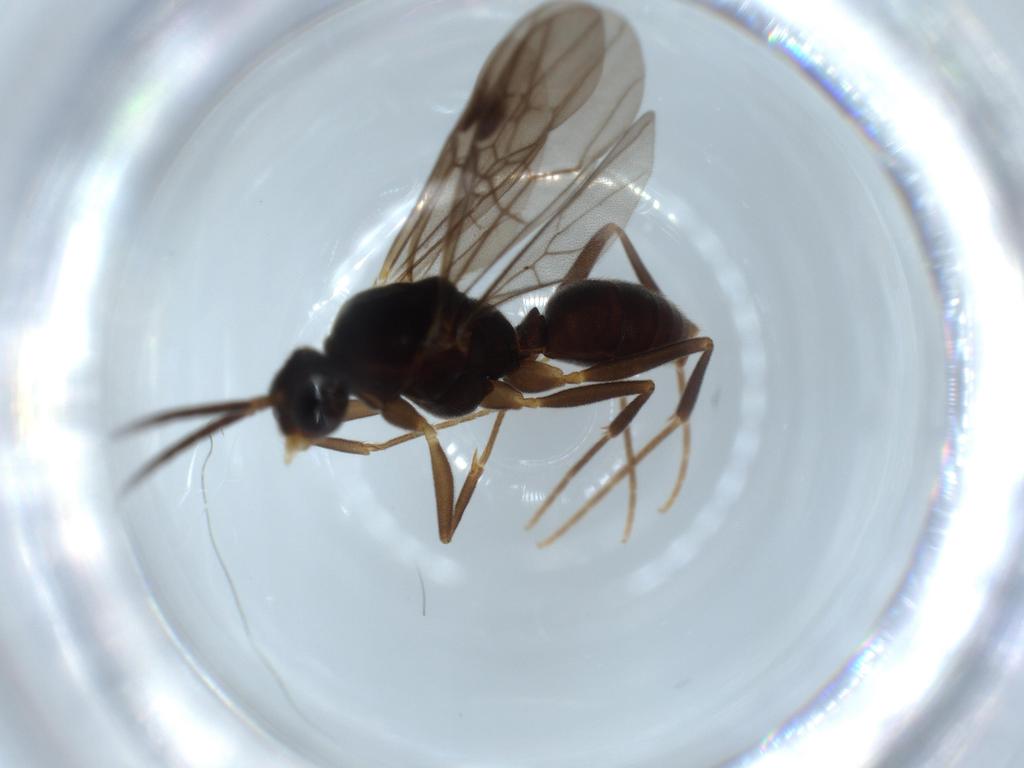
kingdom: Animalia
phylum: Arthropoda
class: Insecta
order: Hymenoptera
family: Formicidae
